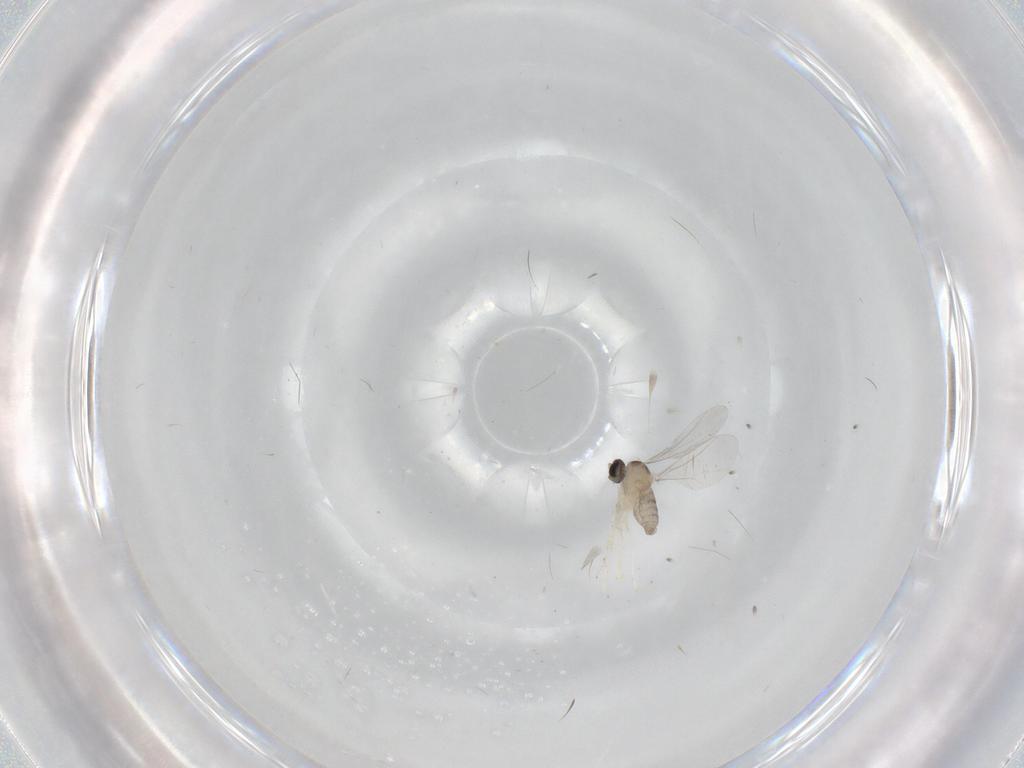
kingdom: Animalia
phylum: Arthropoda
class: Insecta
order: Diptera
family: Cecidomyiidae
